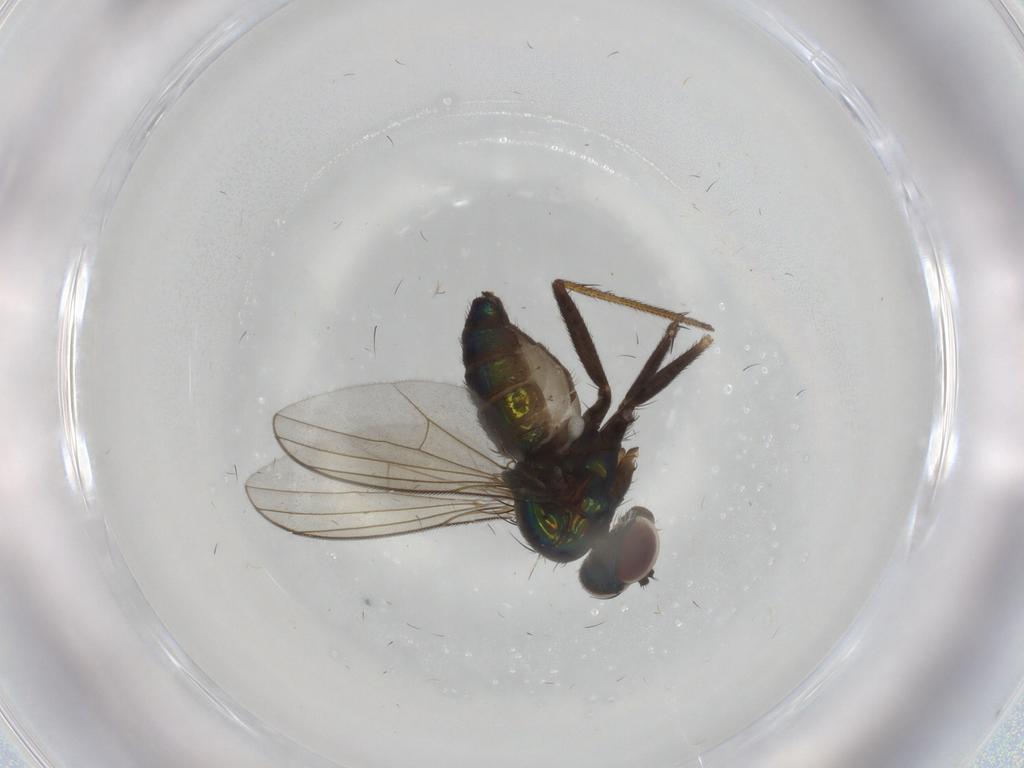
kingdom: Animalia
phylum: Arthropoda
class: Insecta
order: Diptera
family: Dolichopodidae
